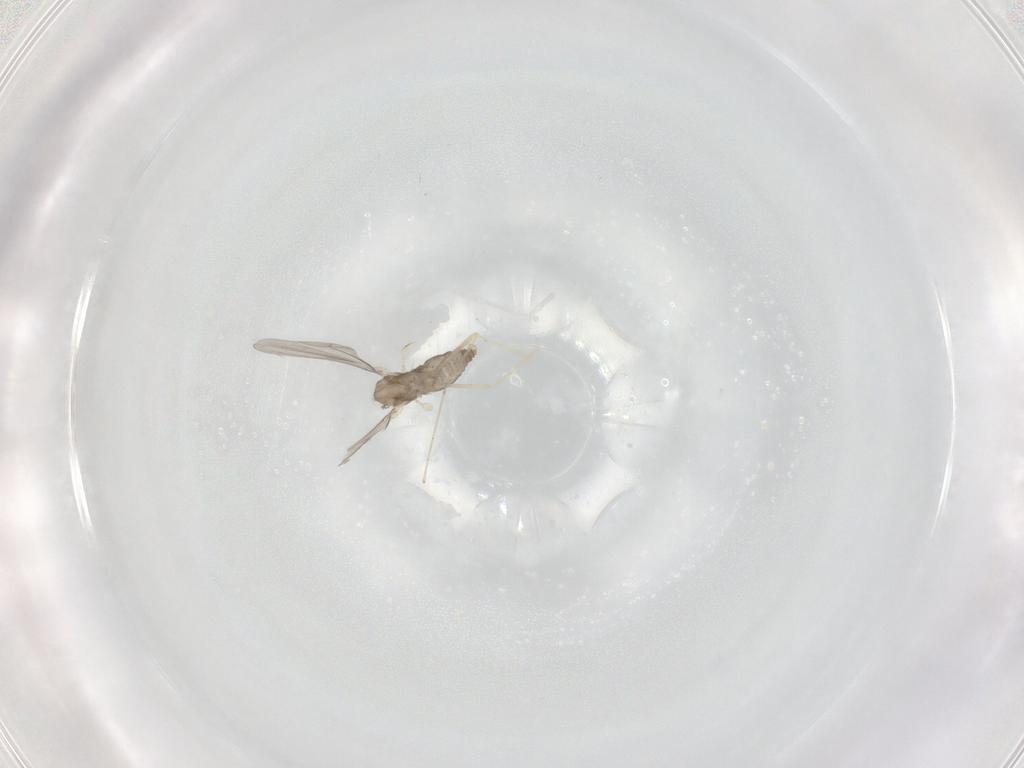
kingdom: Animalia
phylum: Arthropoda
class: Insecta
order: Diptera
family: Cecidomyiidae
